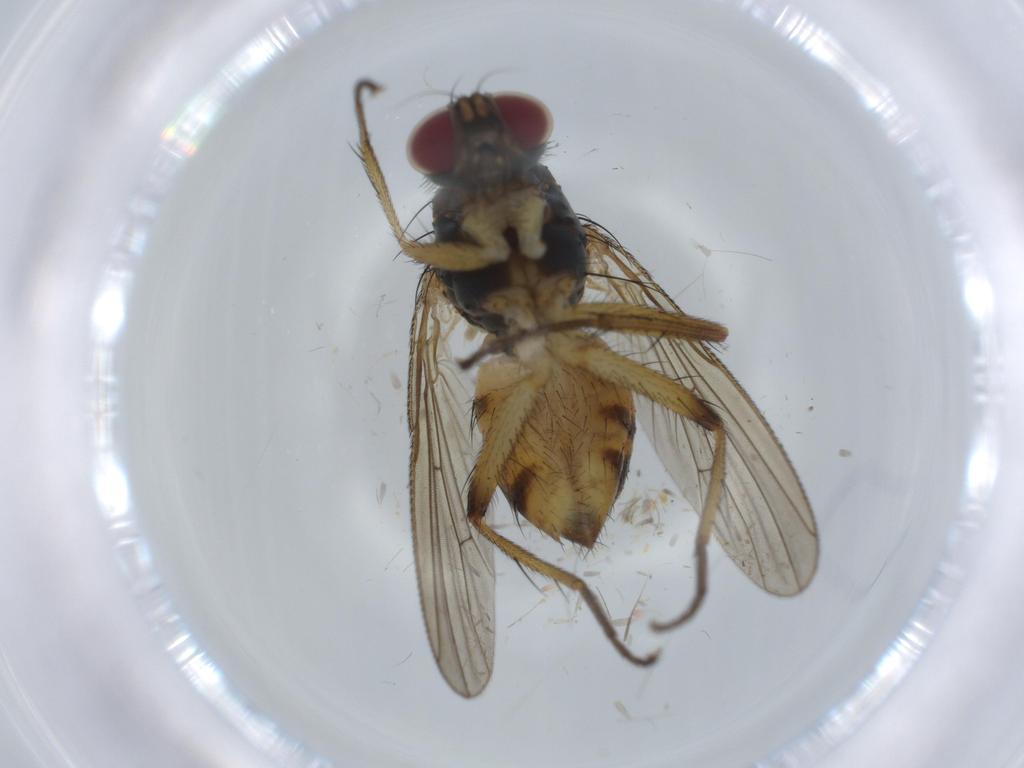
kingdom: Animalia
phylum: Arthropoda
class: Insecta
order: Diptera
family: Sciaridae
